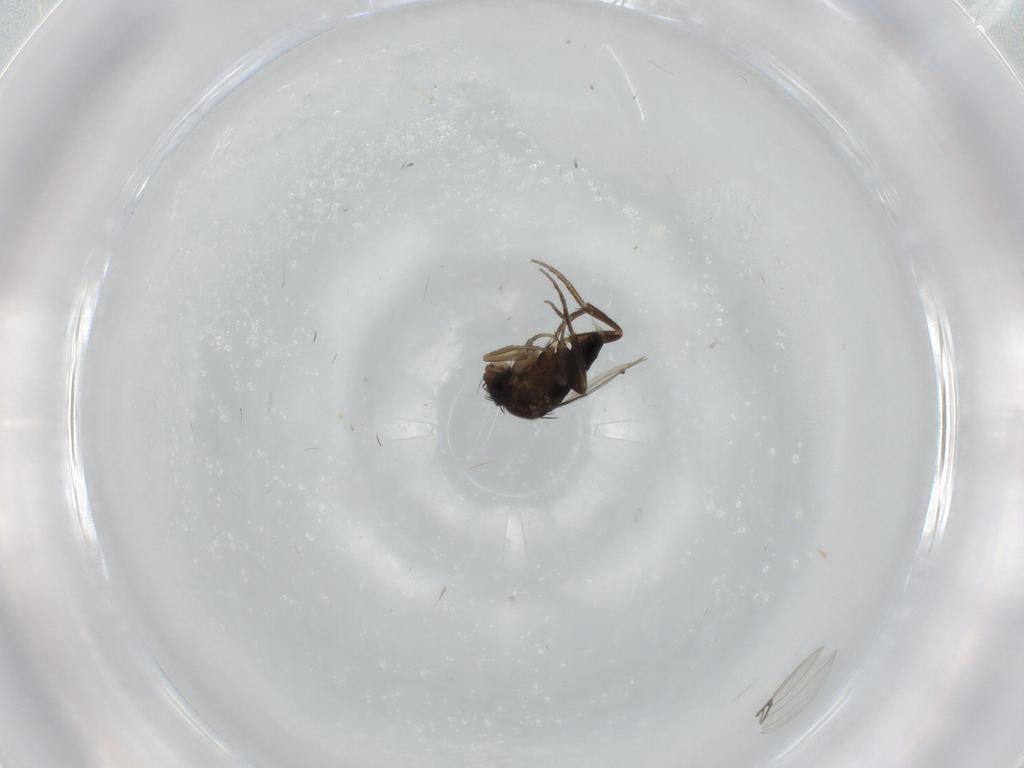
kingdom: Animalia
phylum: Arthropoda
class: Insecta
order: Diptera
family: Phoridae
